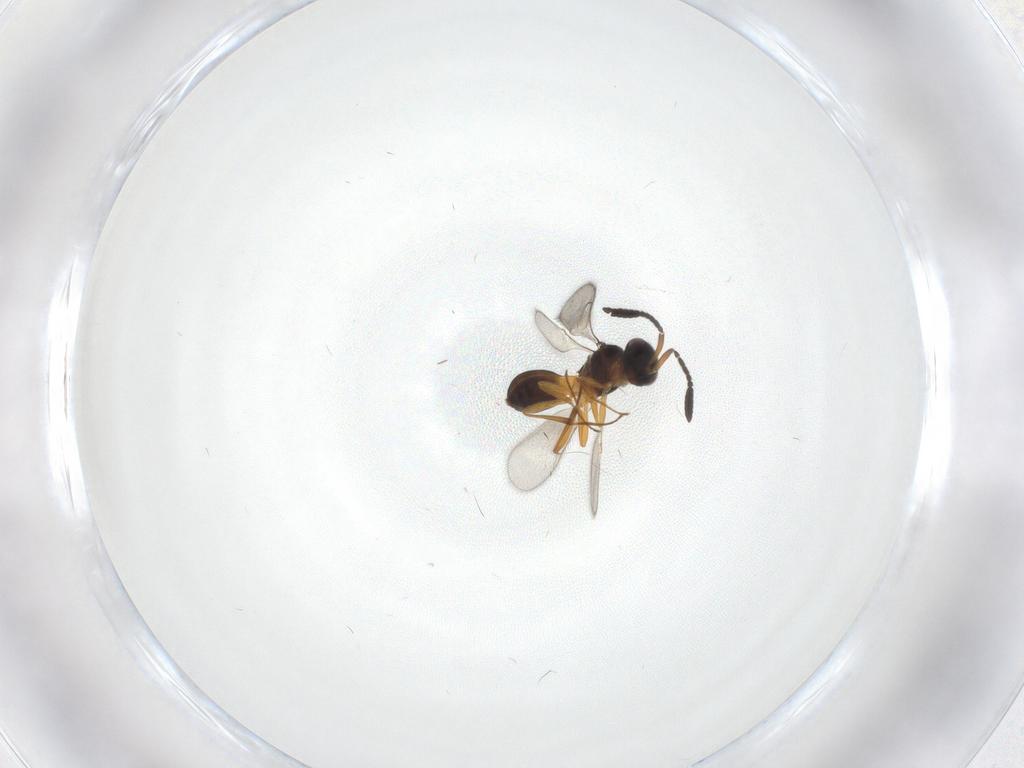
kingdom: Animalia
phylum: Arthropoda
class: Insecta
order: Hymenoptera
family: Scelionidae
